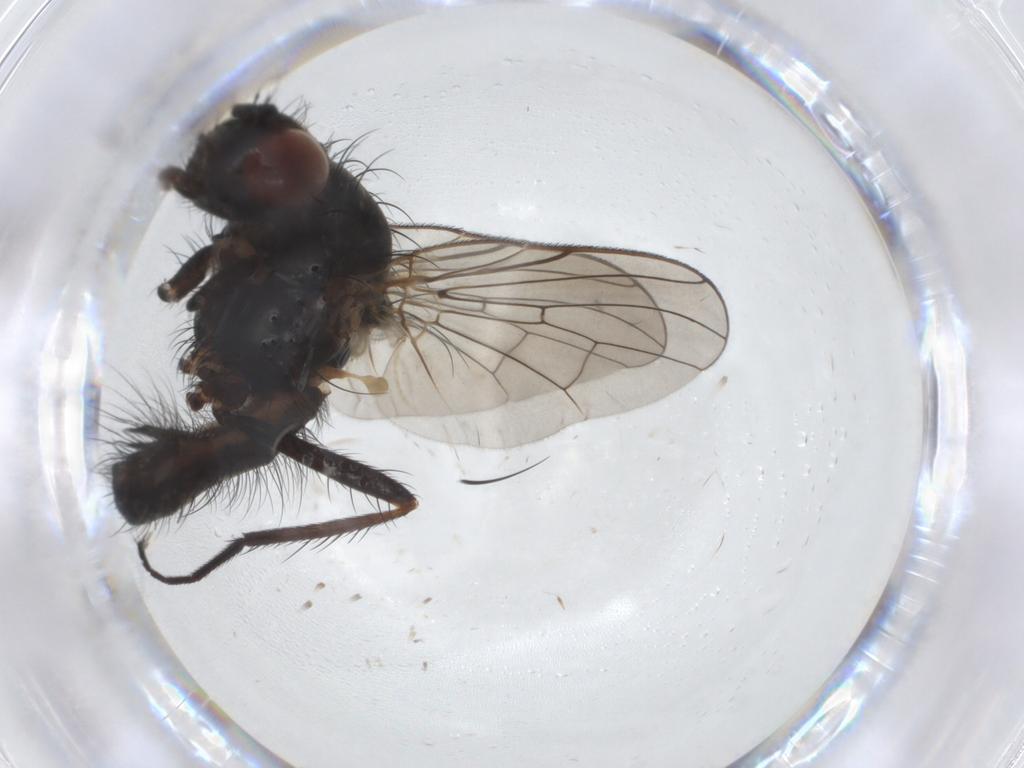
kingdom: Animalia
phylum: Arthropoda
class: Insecta
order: Diptera
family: Anthomyiidae
